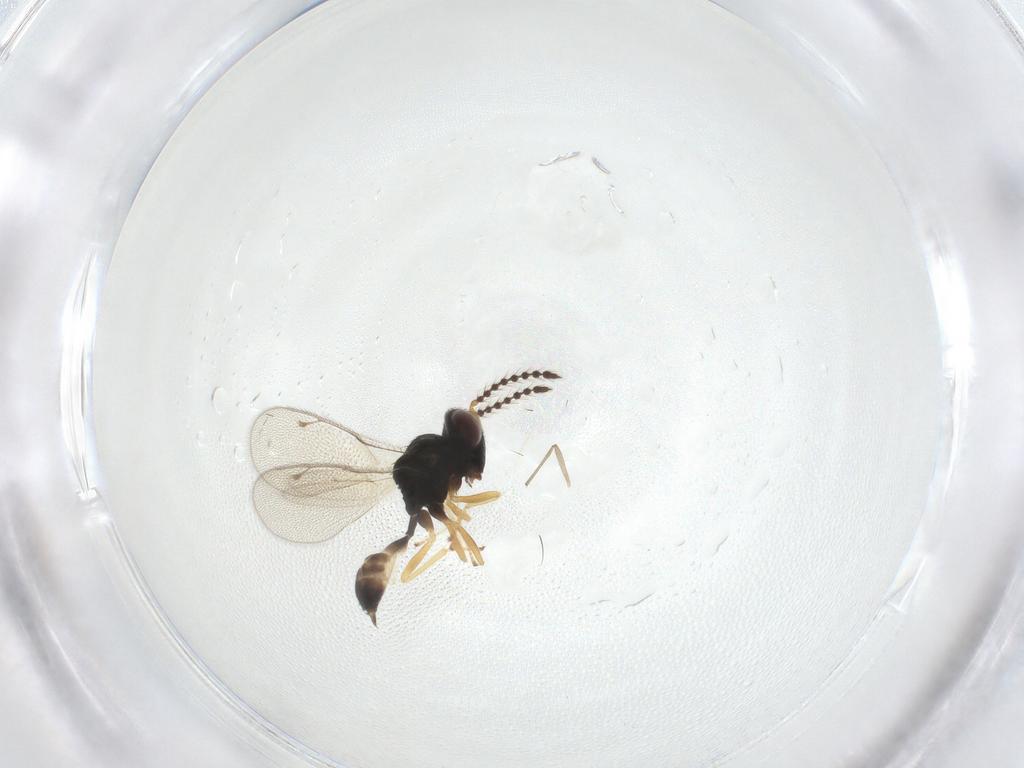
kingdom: Animalia
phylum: Arthropoda
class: Insecta
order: Hymenoptera
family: Pteromalidae
